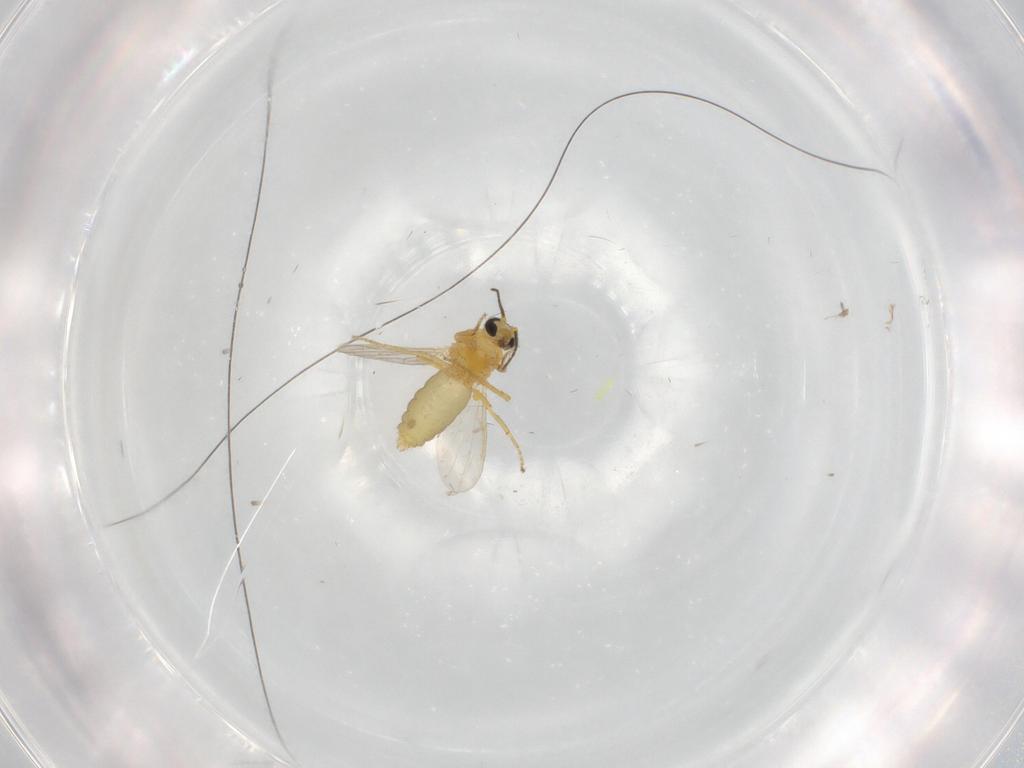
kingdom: Animalia
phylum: Arthropoda
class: Insecta
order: Diptera
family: Ceratopogonidae
